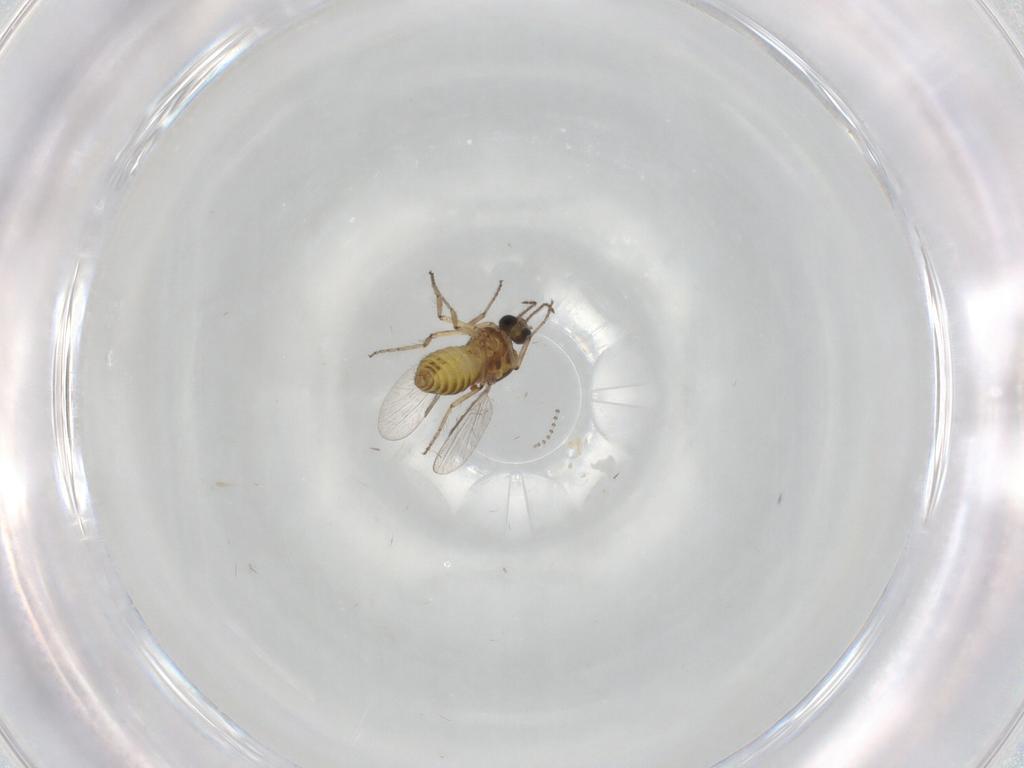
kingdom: Animalia
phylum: Arthropoda
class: Insecta
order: Diptera
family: Ceratopogonidae
